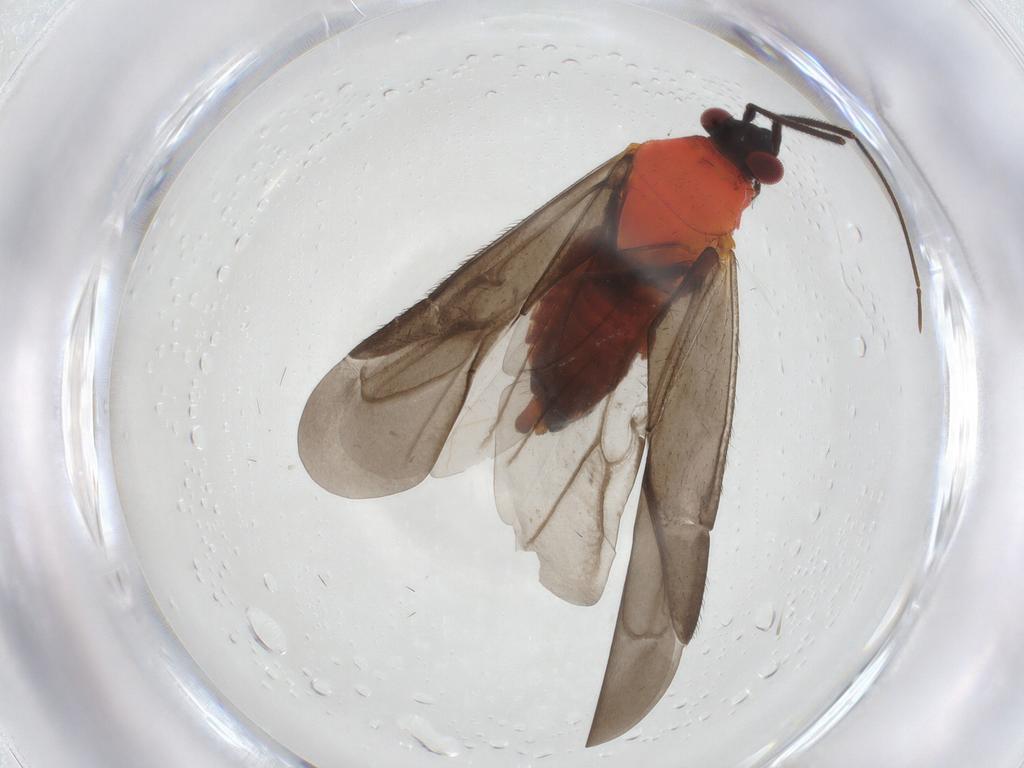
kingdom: Animalia
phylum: Arthropoda
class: Insecta
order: Hemiptera
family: Miridae
